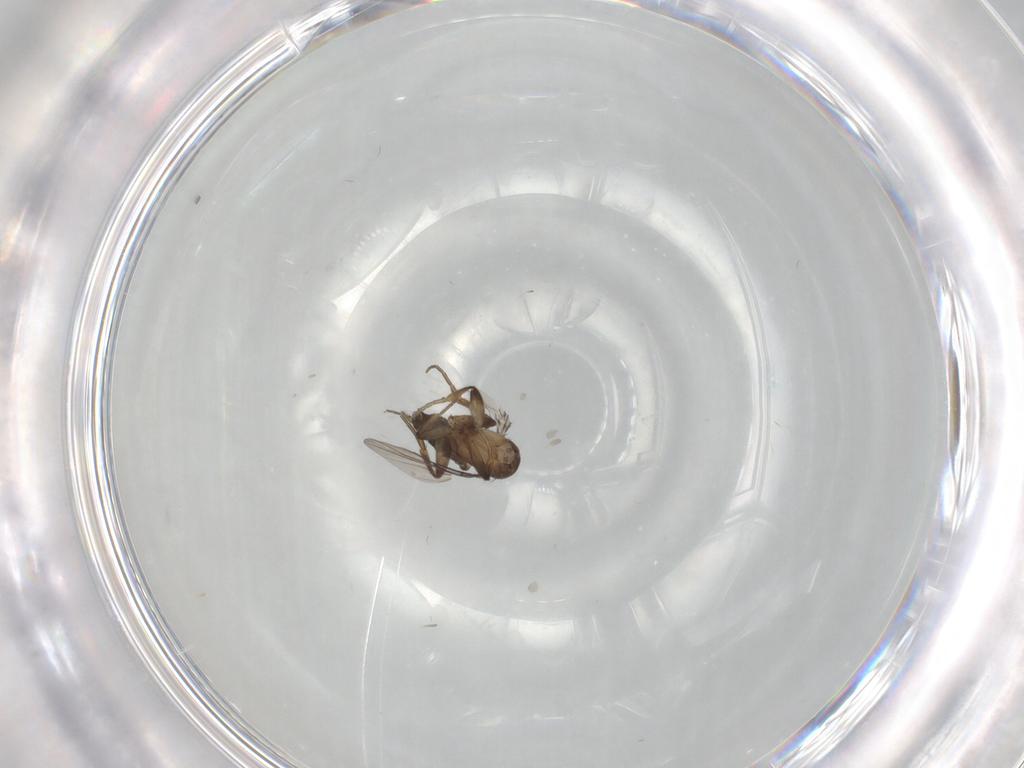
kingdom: Animalia
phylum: Arthropoda
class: Insecta
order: Diptera
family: Phoridae
